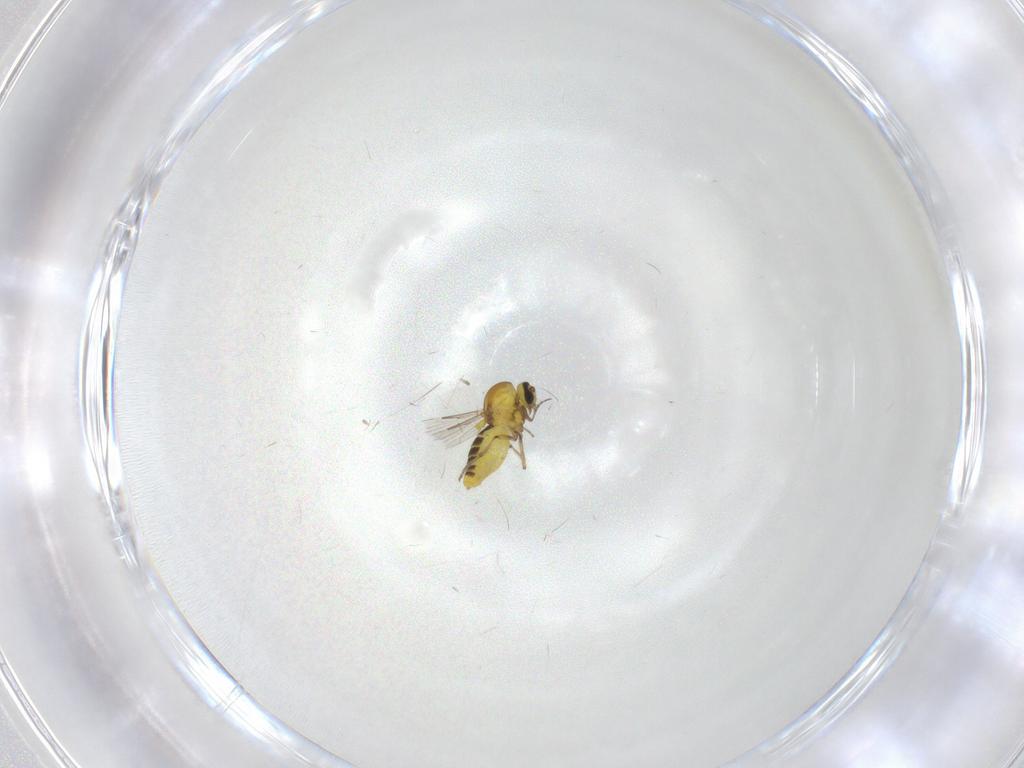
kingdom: Animalia
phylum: Arthropoda
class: Insecta
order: Diptera
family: Ceratopogonidae
